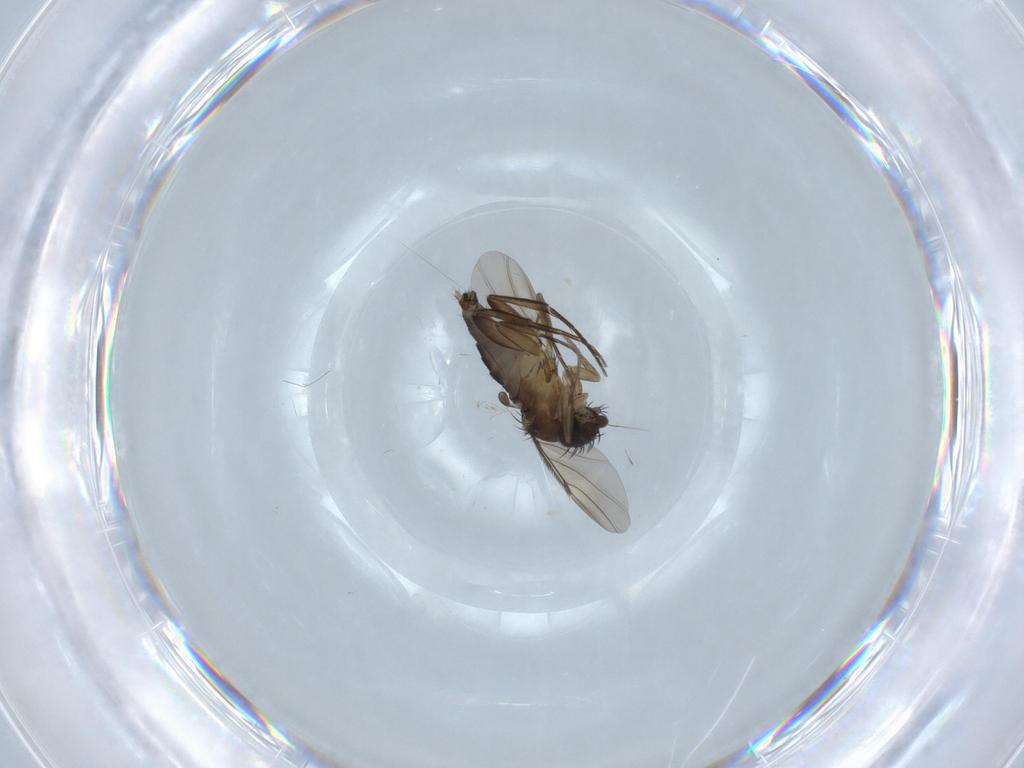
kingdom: Animalia
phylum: Arthropoda
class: Insecta
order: Diptera
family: Phoridae
